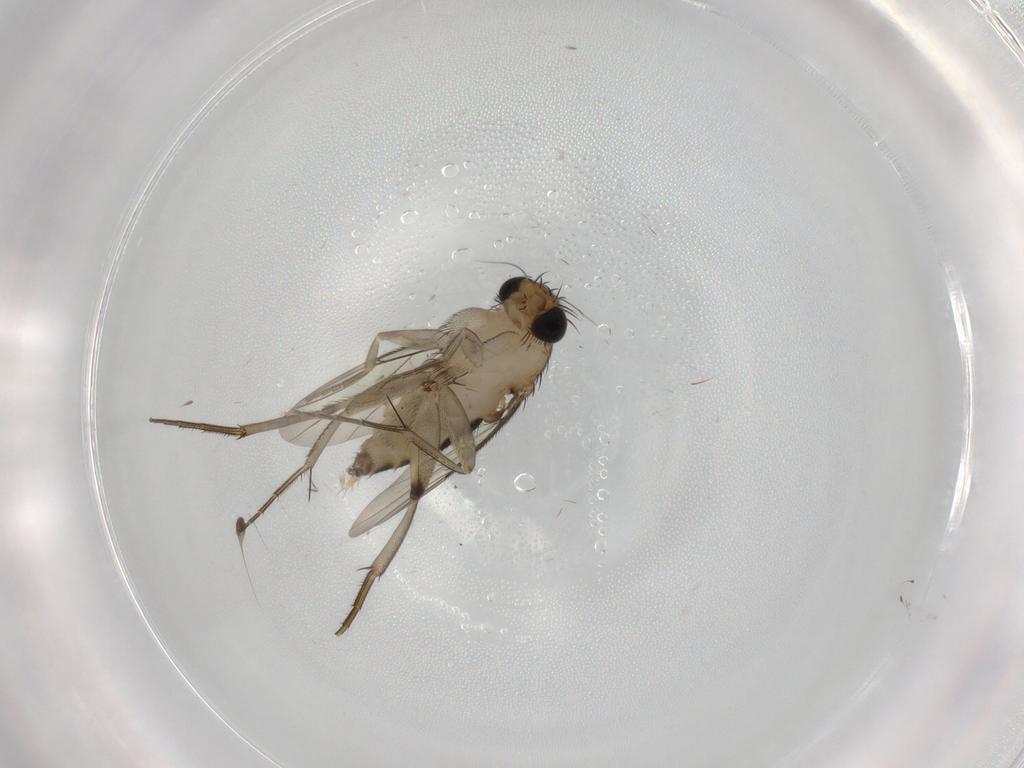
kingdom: Animalia
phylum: Arthropoda
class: Insecta
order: Diptera
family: Phoridae
